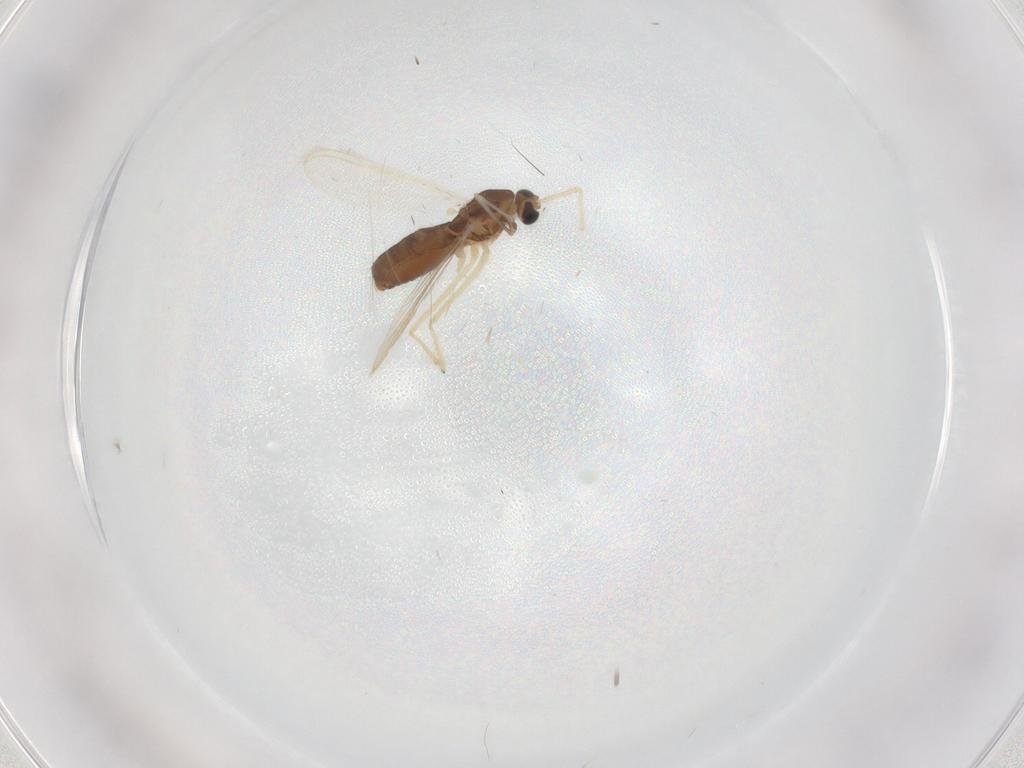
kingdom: Animalia
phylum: Arthropoda
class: Insecta
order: Diptera
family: Chironomidae
